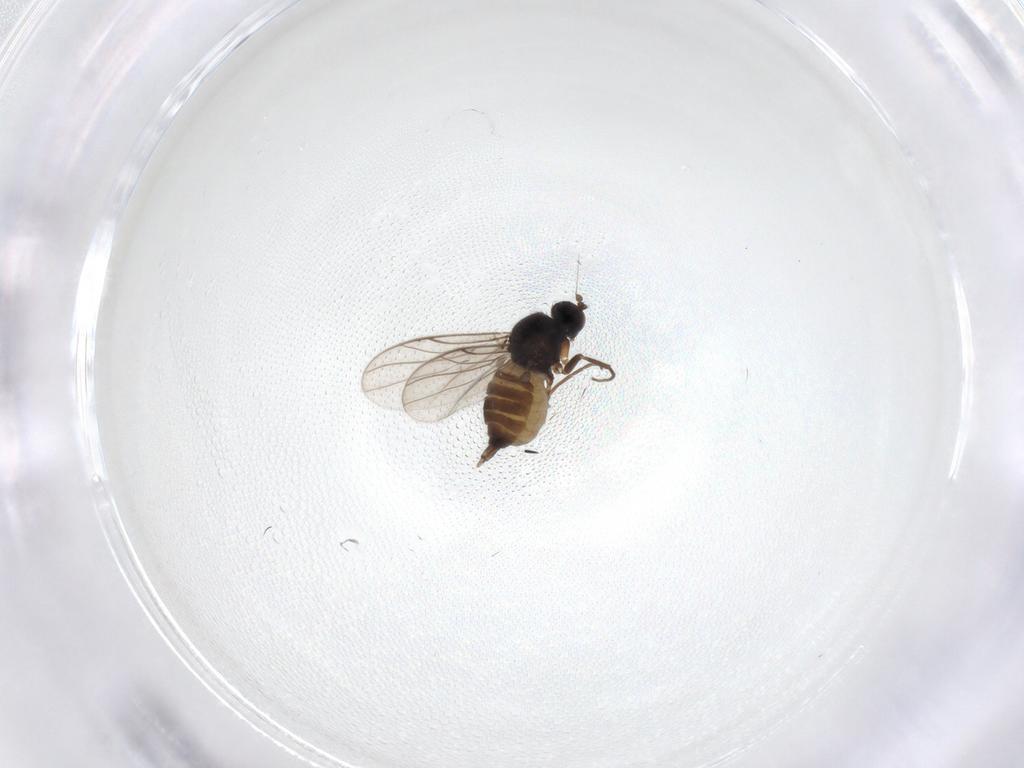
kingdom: Animalia
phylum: Arthropoda
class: Insecta
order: Diptera
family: Hybotidae
